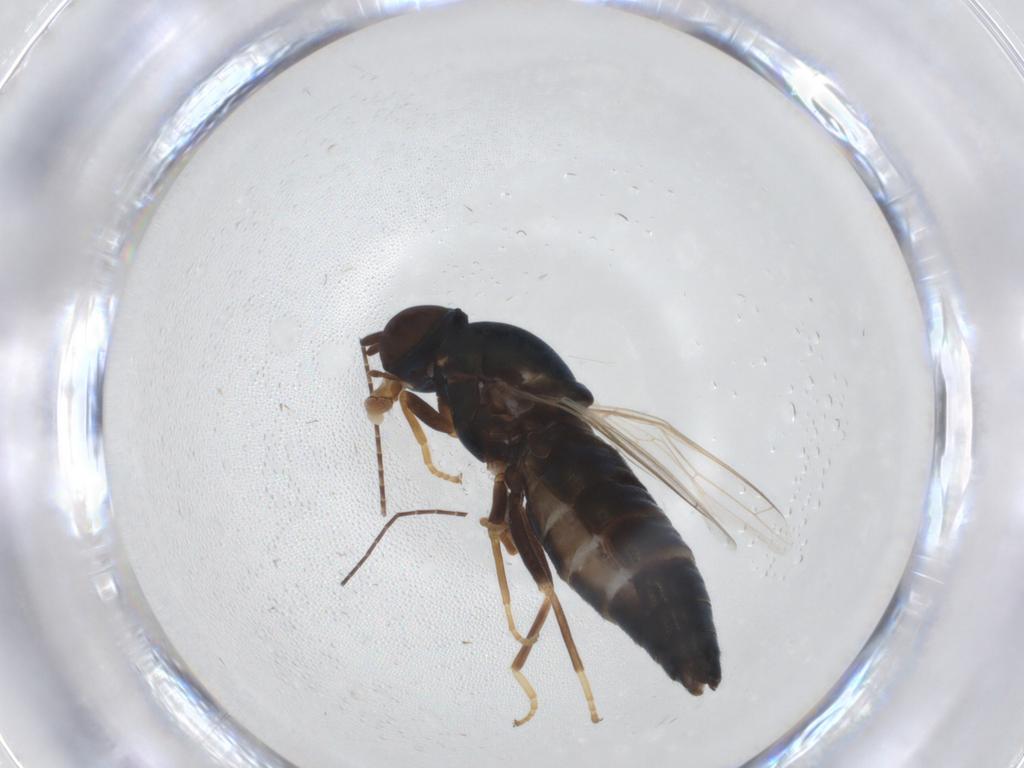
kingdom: Animalia
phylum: Arthropoda
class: Insecta
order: Diptera
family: Scenopinidae
